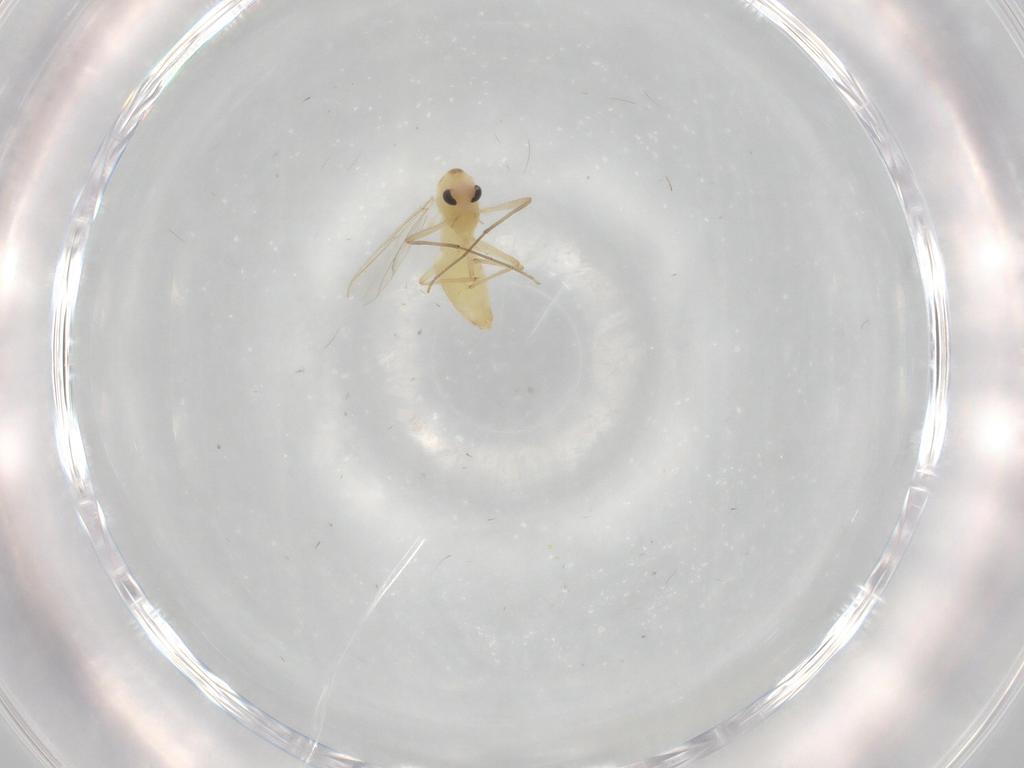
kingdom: Animalia
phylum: Arthropoda
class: Insecta
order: Diptera
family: Chironomidae
